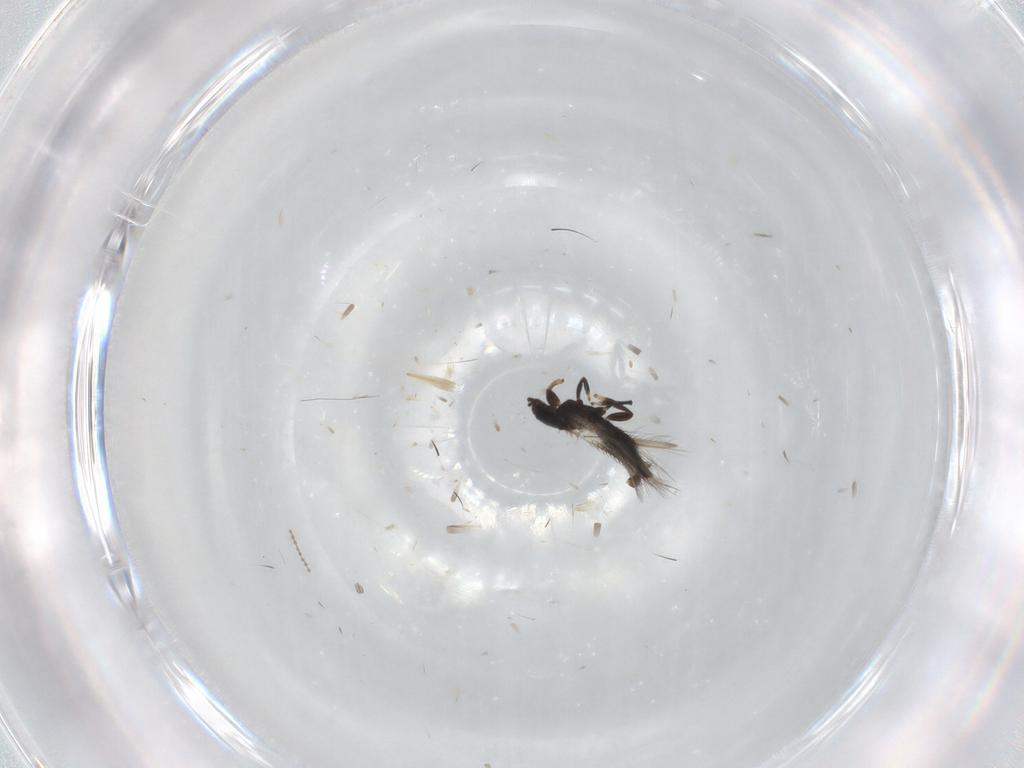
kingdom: Animalia
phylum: Arthropoda
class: Insecta
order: Thysanoptera
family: Thripidae
